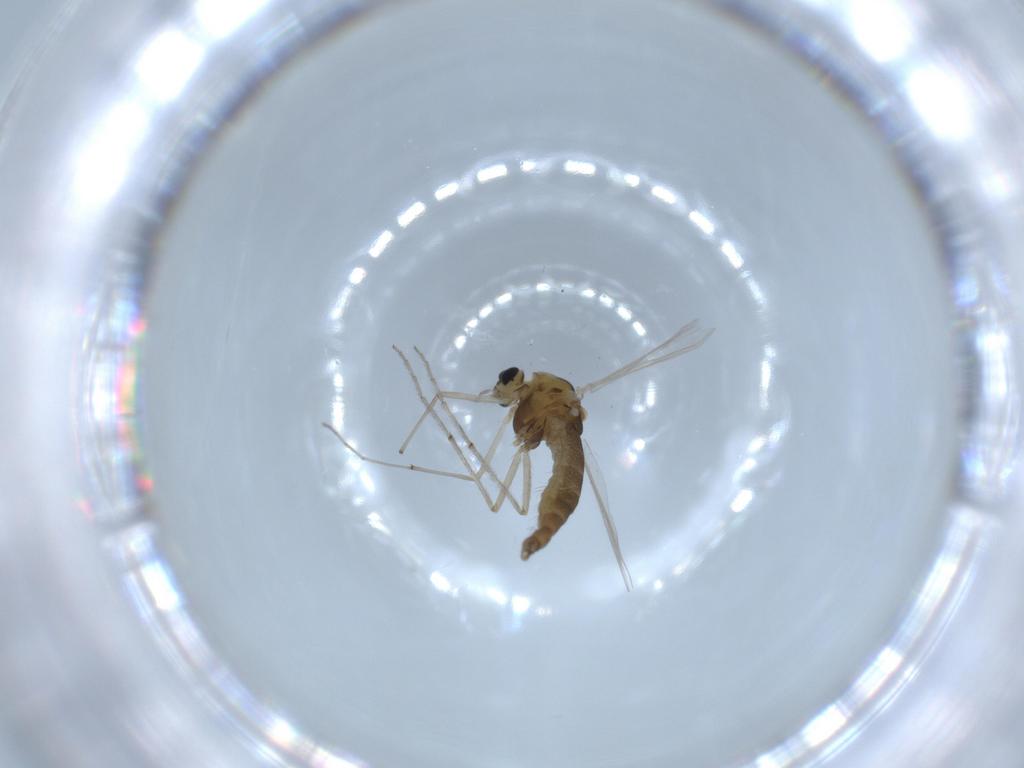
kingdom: Animalia
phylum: Arthropoda
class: Insecta
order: Diptera
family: Chironomidae
